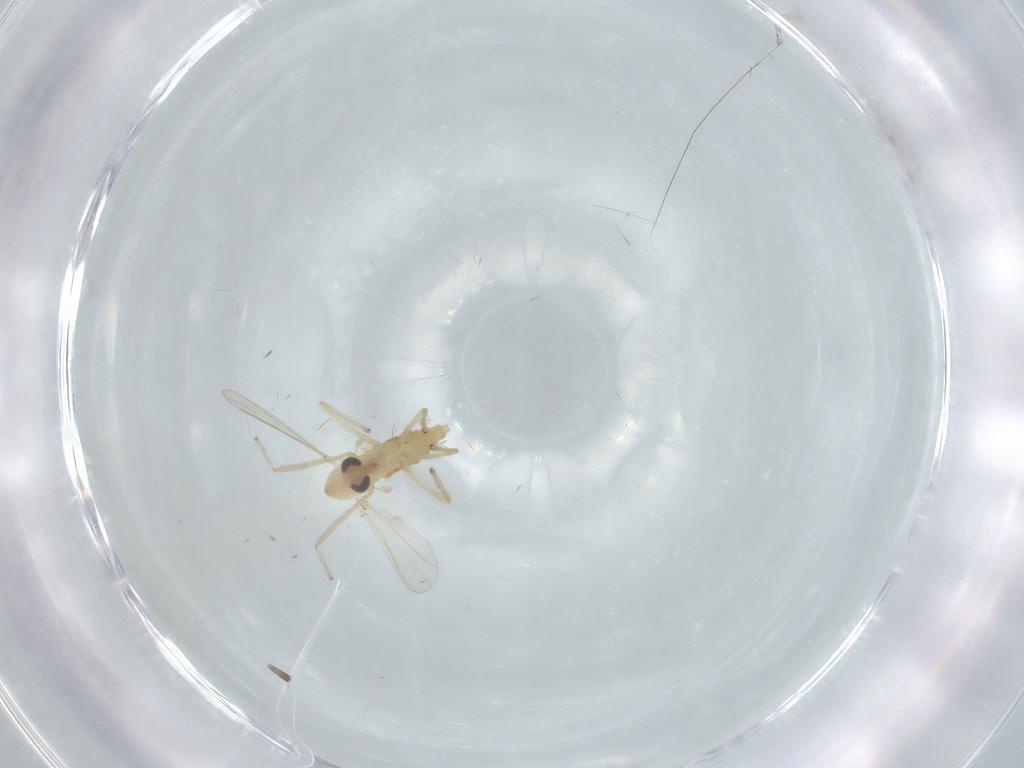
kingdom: Animalia
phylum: Arthropoda
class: Insecta
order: Diptera
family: Chironomidae
